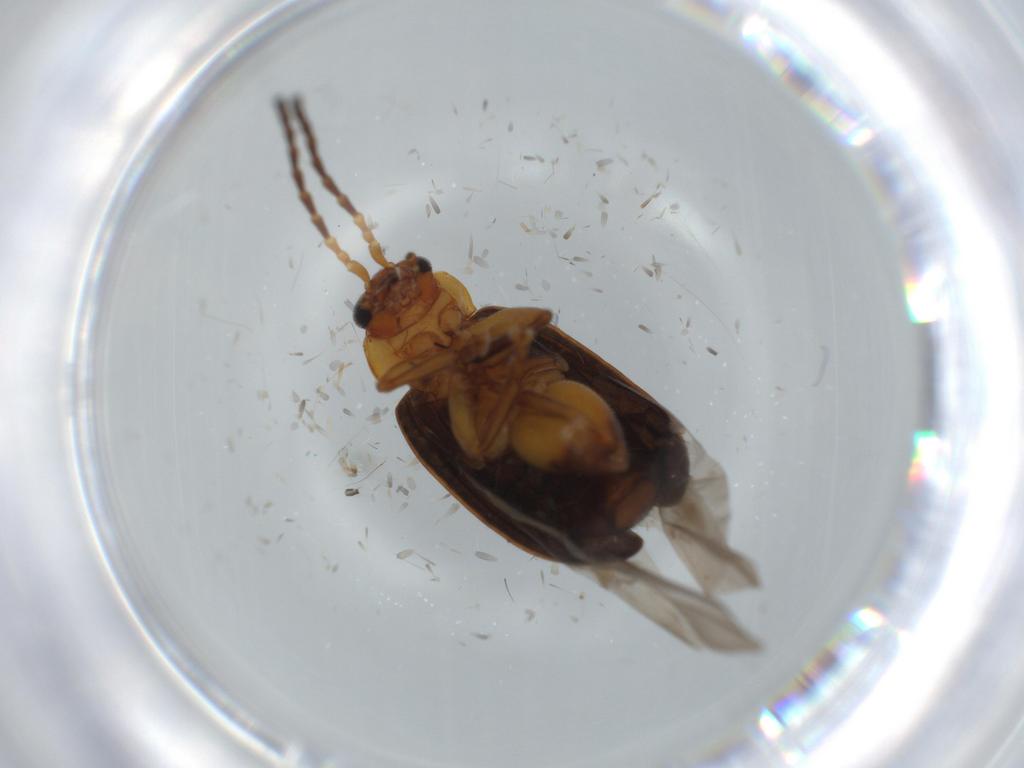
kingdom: Animalia
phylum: Arthropoda
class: Insecta
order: Coleoptera
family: Chrysomelidae
